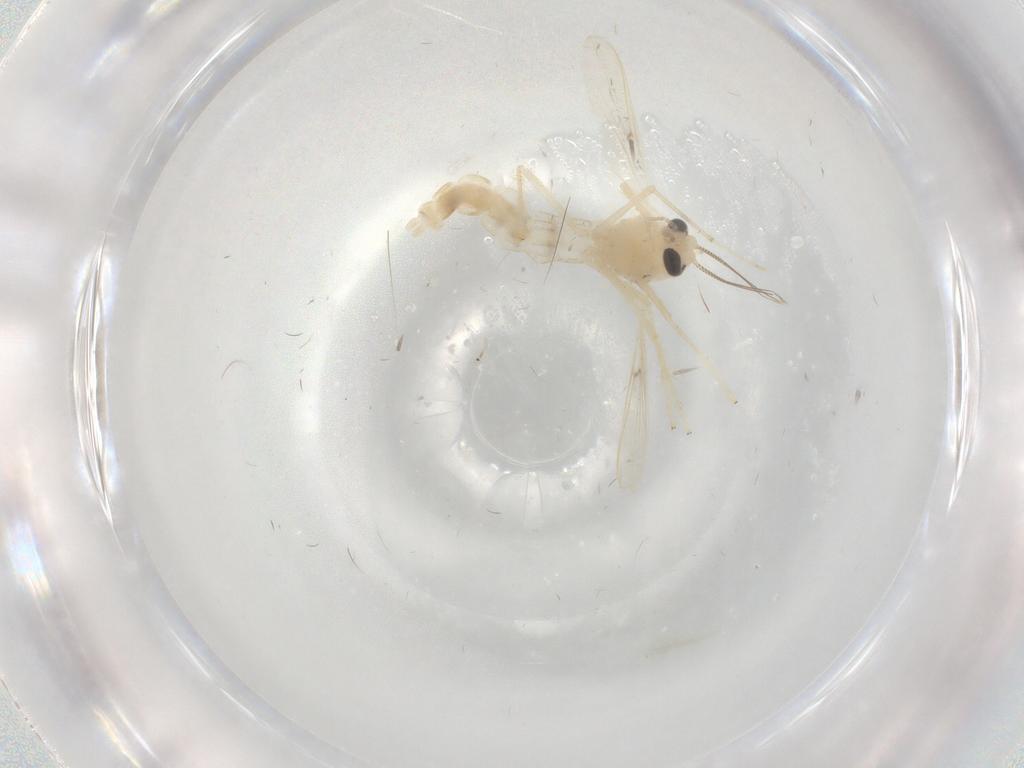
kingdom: Animalia
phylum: Arthropoda
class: Insecta
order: Diptera
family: Chironomidae
